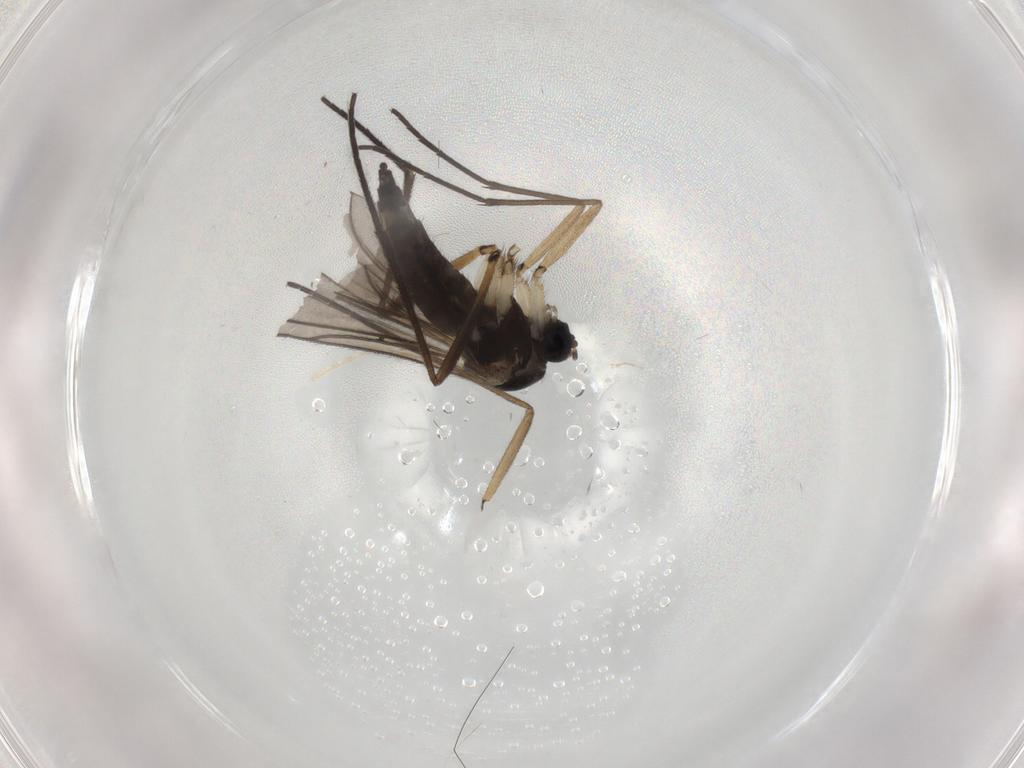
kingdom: Animalia
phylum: Arthropoda
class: Insecta
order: Diptera
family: Sciaridae
